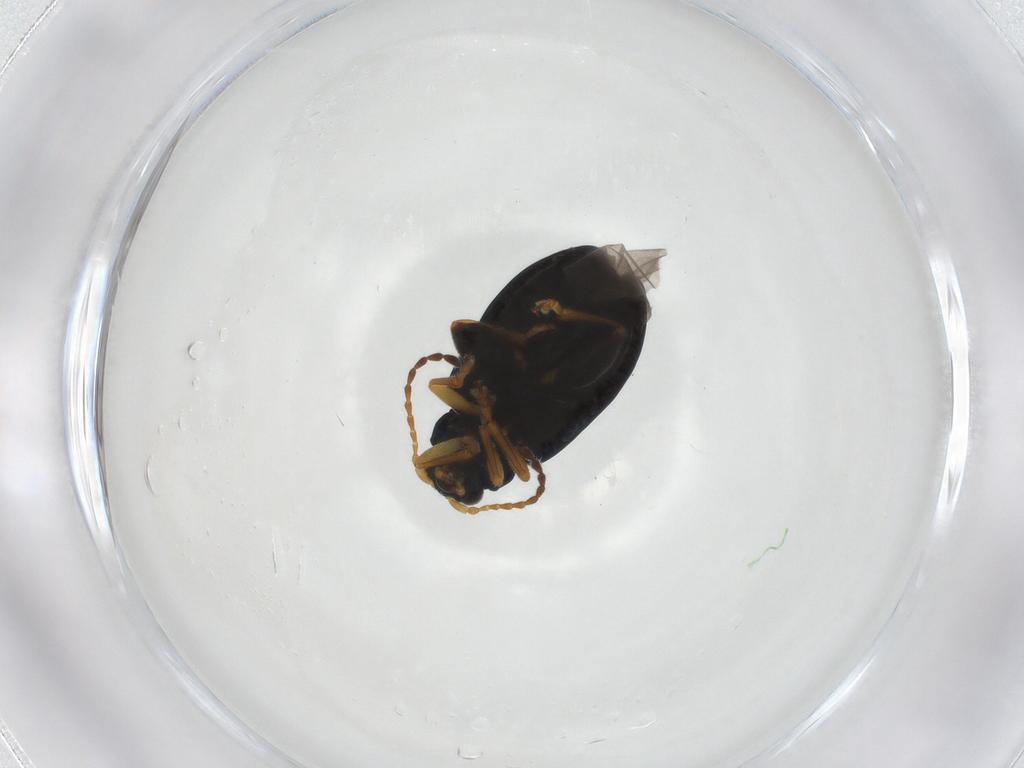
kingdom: Animalia
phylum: Arthropoda
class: Insecta
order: Coleoptera
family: Chrysomelidae
